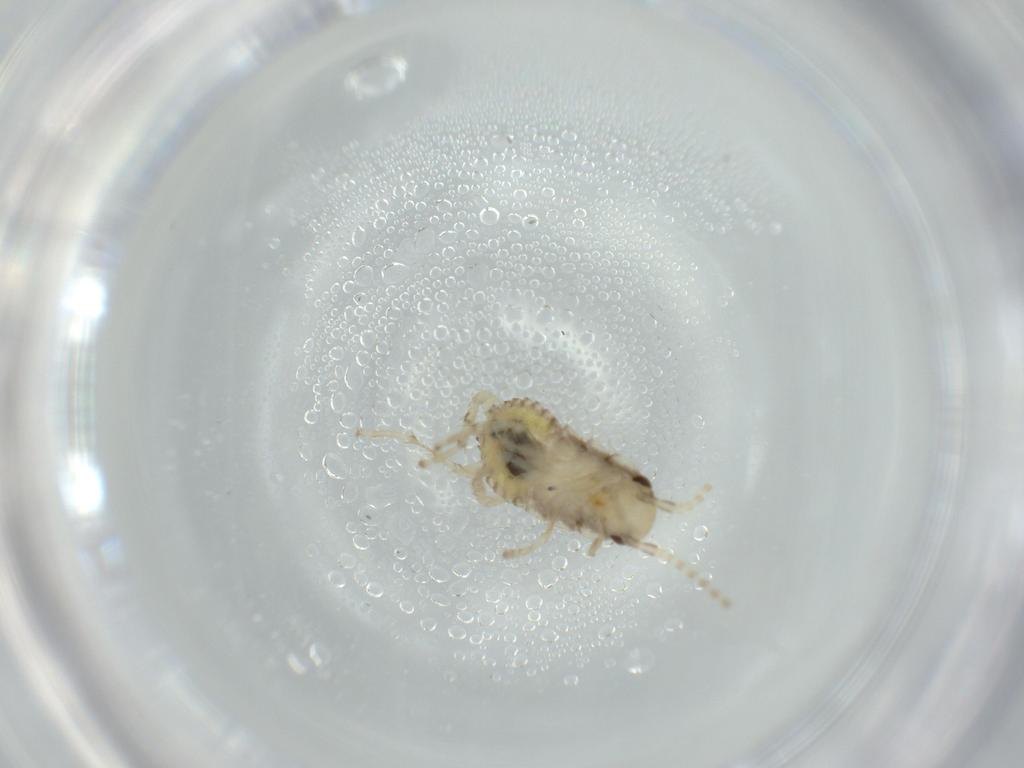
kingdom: Animalia
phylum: Arthropoda
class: Insecta
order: Blattodea
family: Ectobiidae
